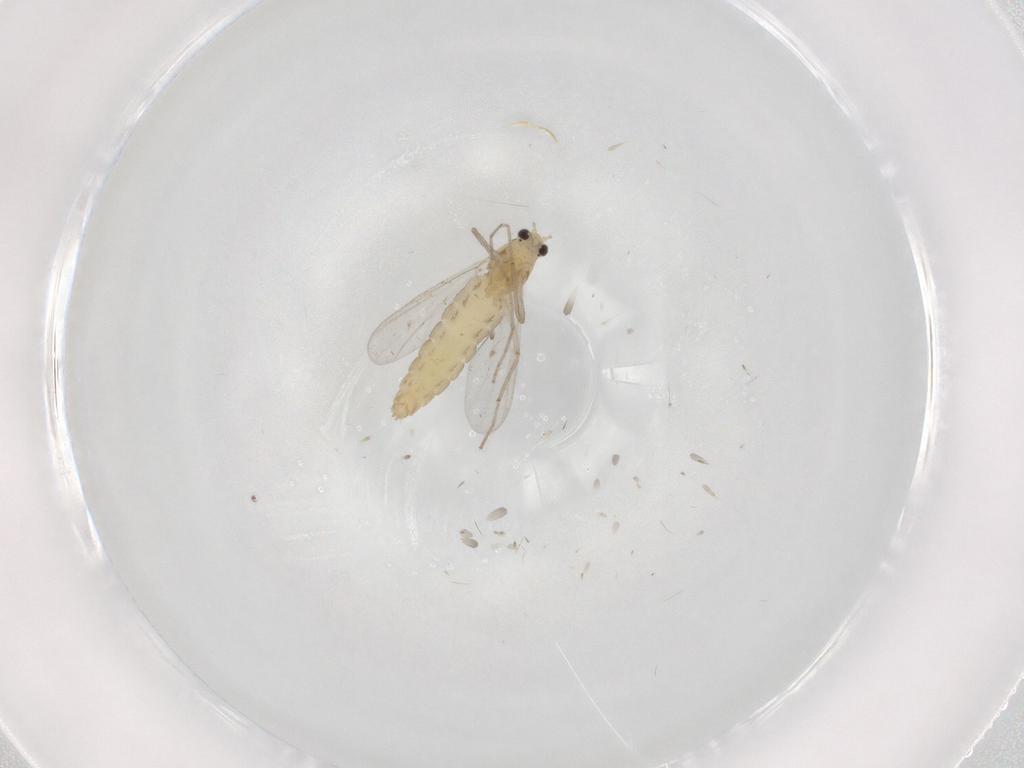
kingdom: Animalia
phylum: Arthropoda
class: Insecta
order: Diptera
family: Chironomidae
